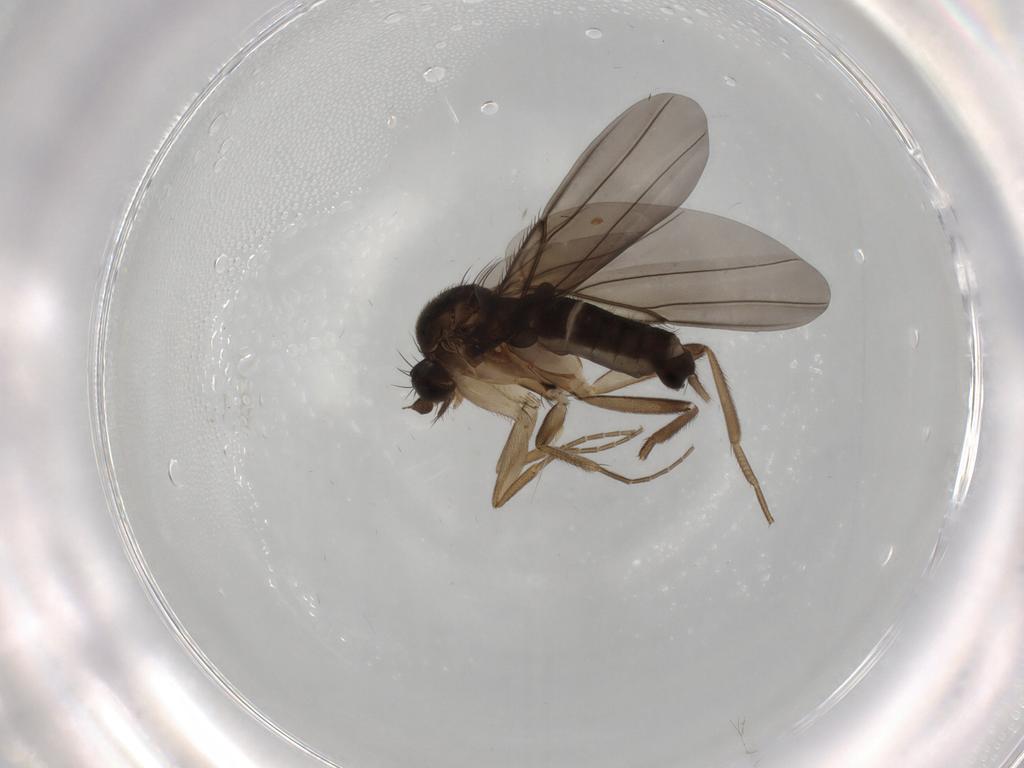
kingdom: Animalia
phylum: Arthropoda
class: Insecta
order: Diptera
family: Phoridae
